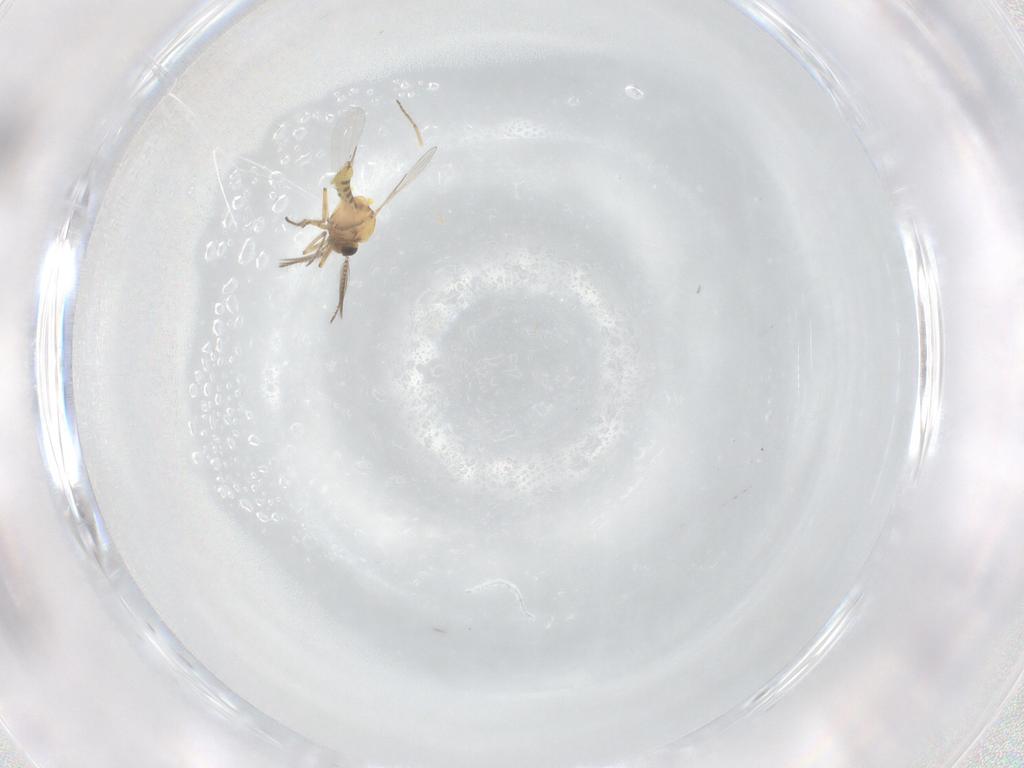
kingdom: Animalia
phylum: Arthropoda
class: Insecta
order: Diptera
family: Ceratopogonidae
